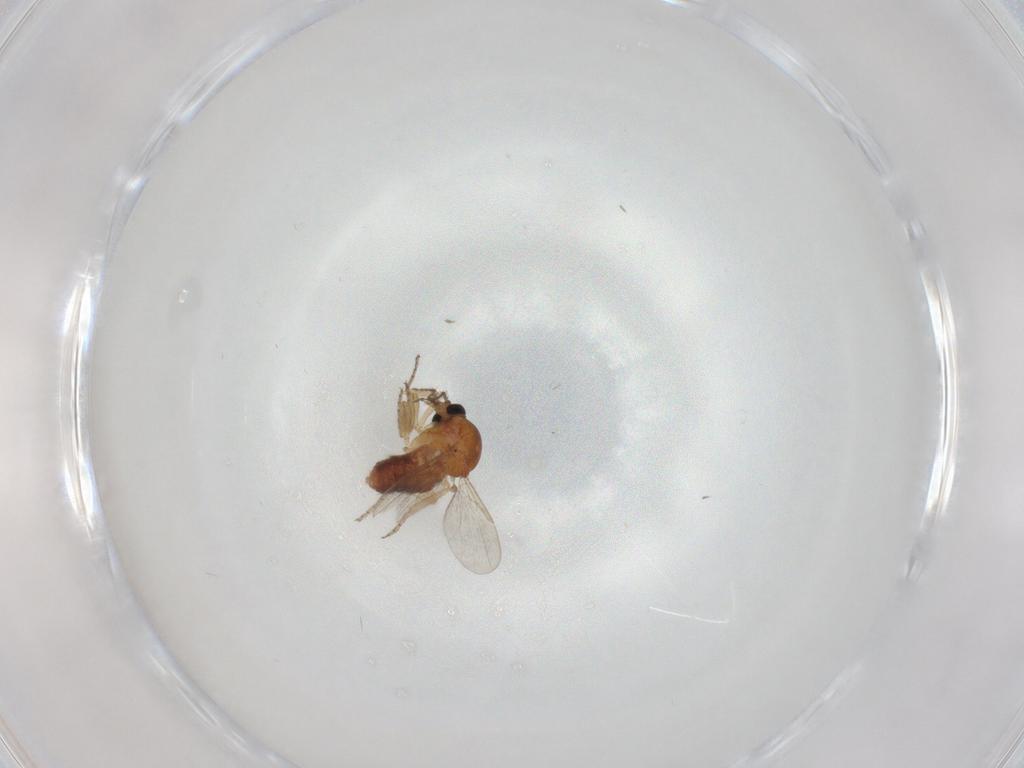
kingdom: Animalia
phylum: Arthropoda
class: Insecta
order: Diptera
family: Ceratopogonidae
